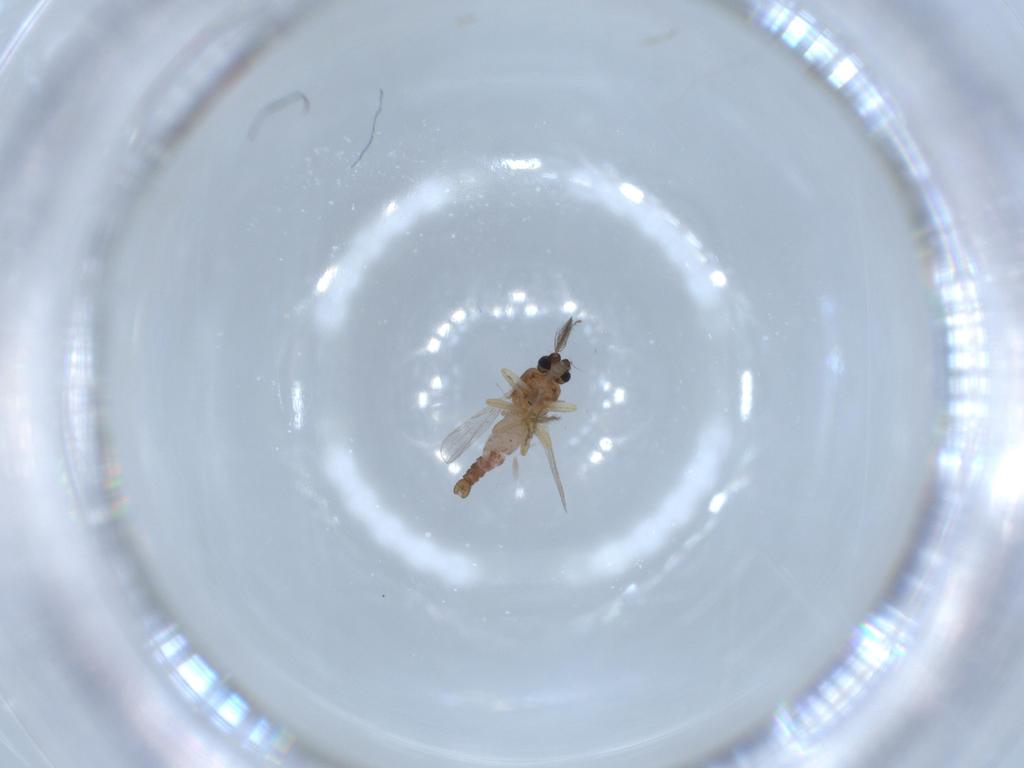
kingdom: Animalia
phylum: Arthropoda
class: Insecta
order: Diptera
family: Ceratopogonidae
